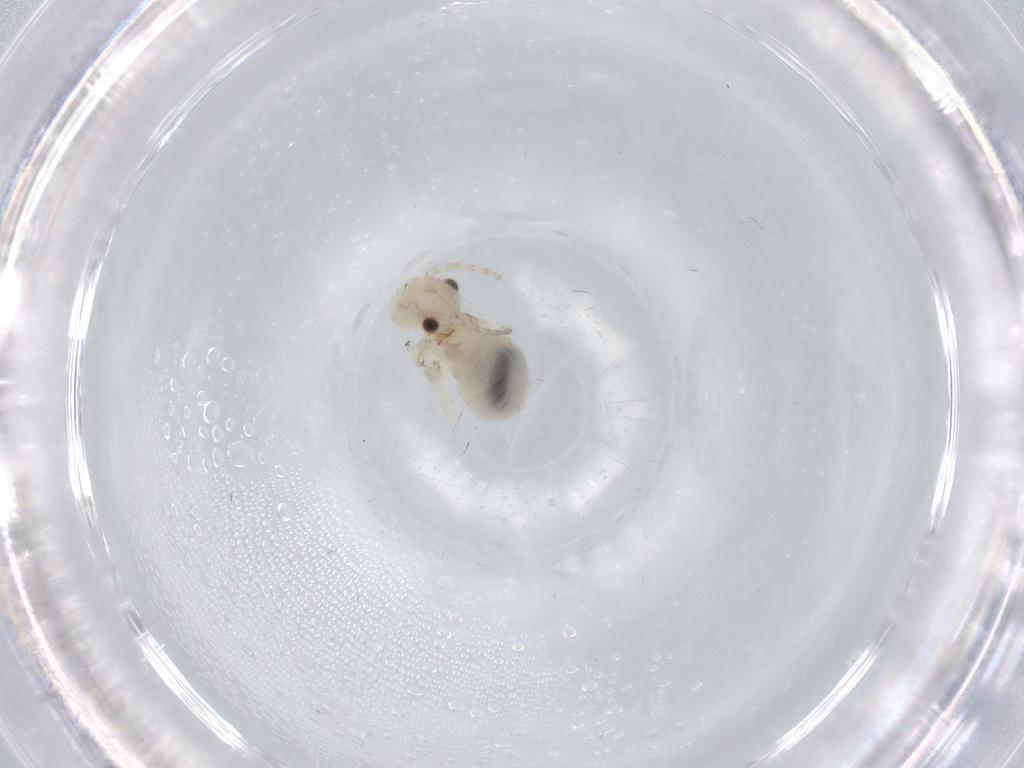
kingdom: Animalia
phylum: Arthropoda
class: Insecta
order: Psocodea
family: Amphipsocidae
